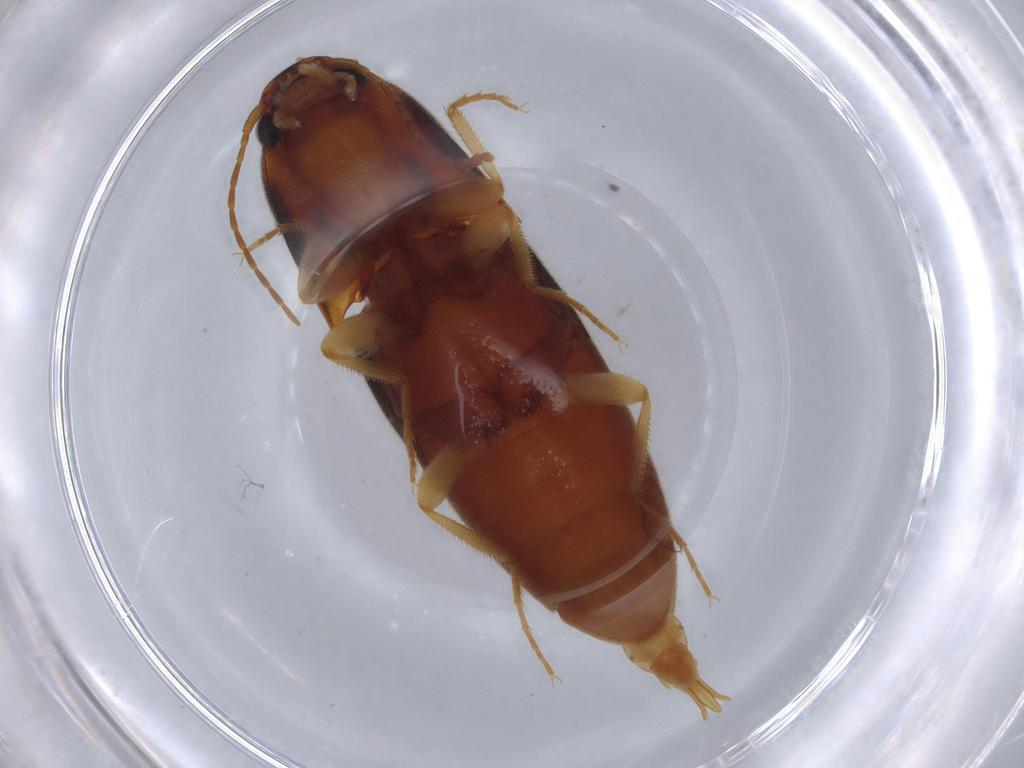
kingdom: Animalia
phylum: Arthropoda
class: Insecta
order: Coleoptera
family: Elateridae
